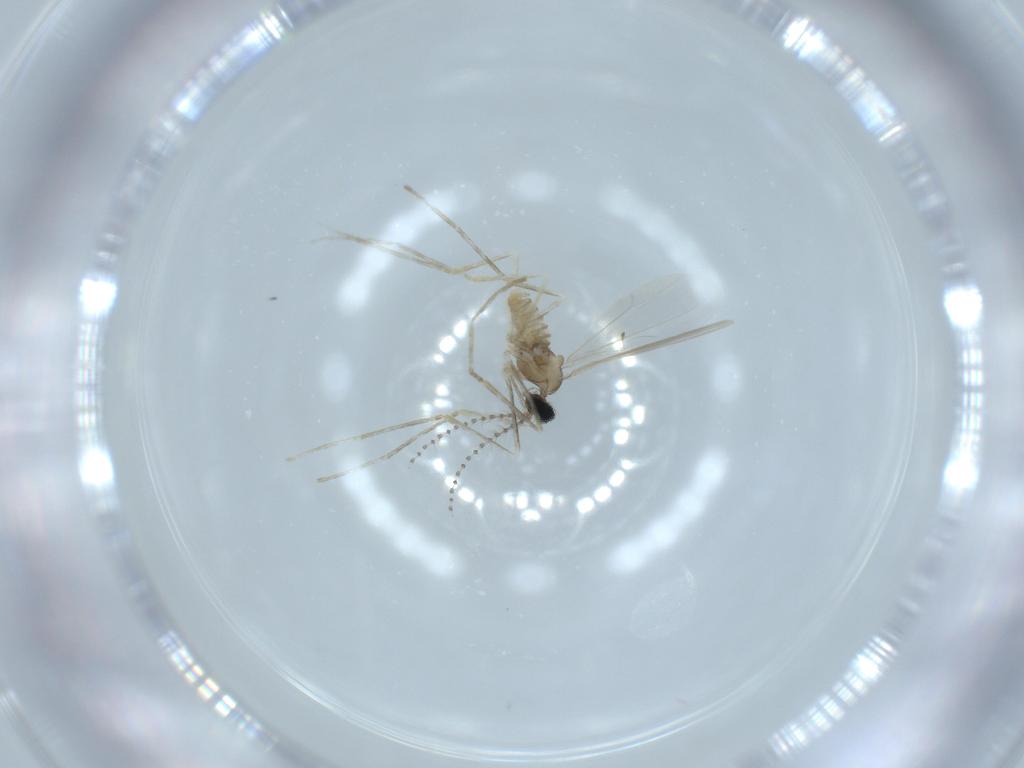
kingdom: Animalia
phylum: Arthropoda
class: Insecta
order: Diptera
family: Cecidomyiidae
